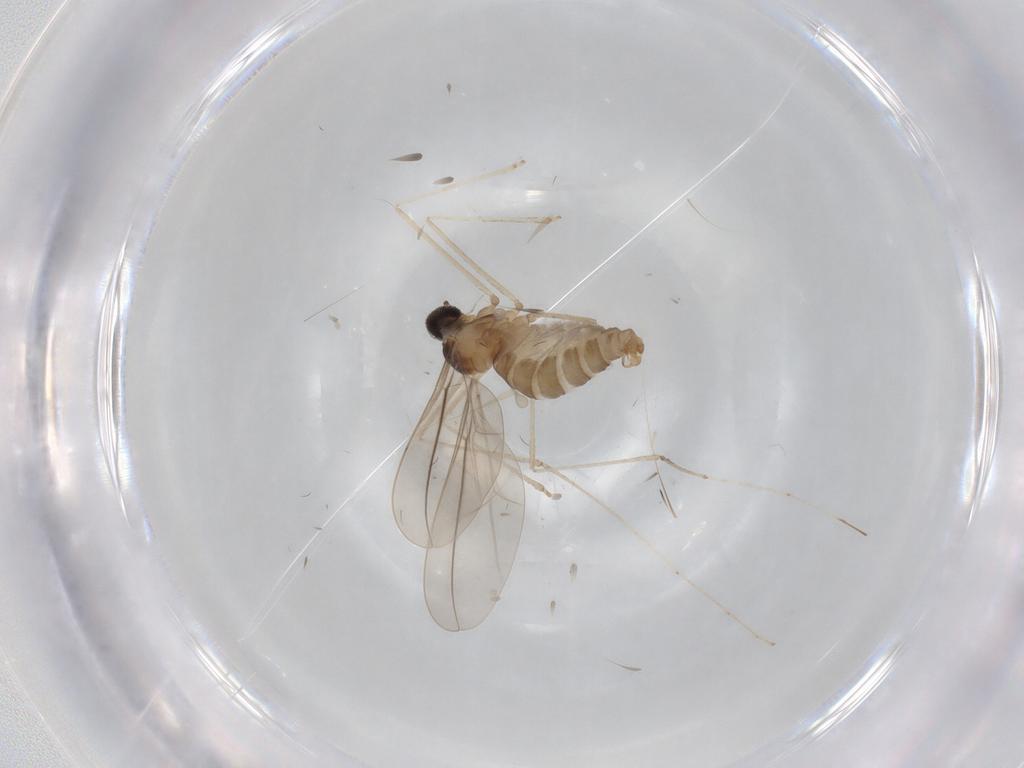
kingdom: Animalia
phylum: Arthropoda
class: Insecta
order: Diptera
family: Cecidomyiidae
